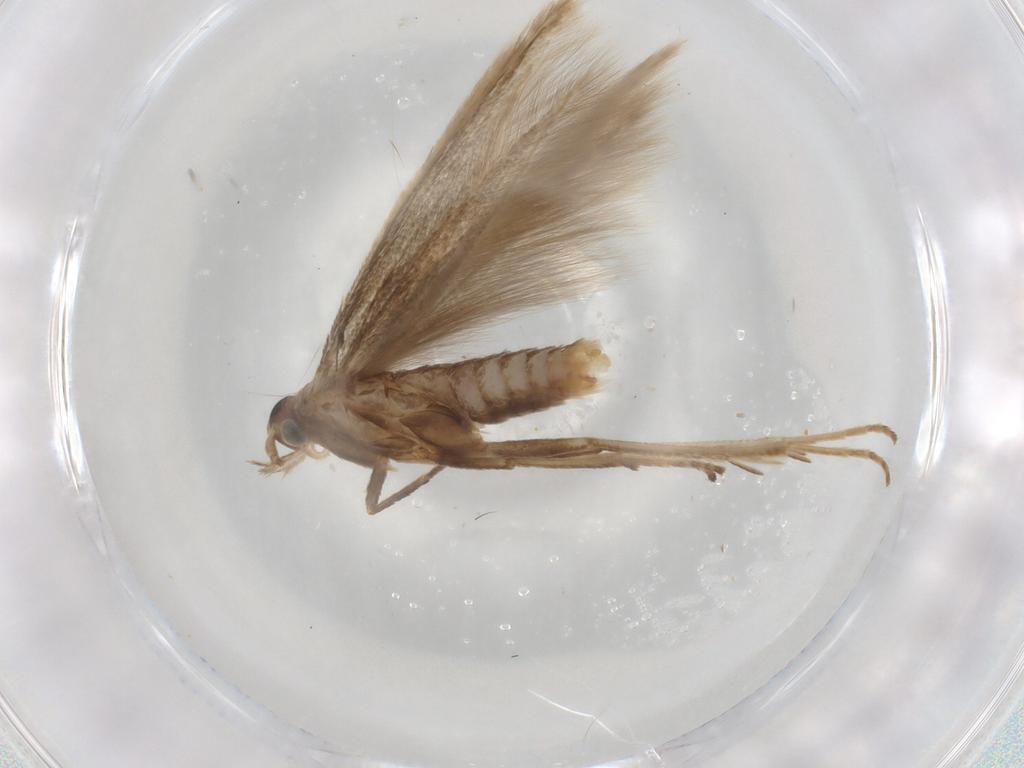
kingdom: Animalia
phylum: Arthropoda
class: Insecta
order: Lepidoptera
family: Coleophoridae
